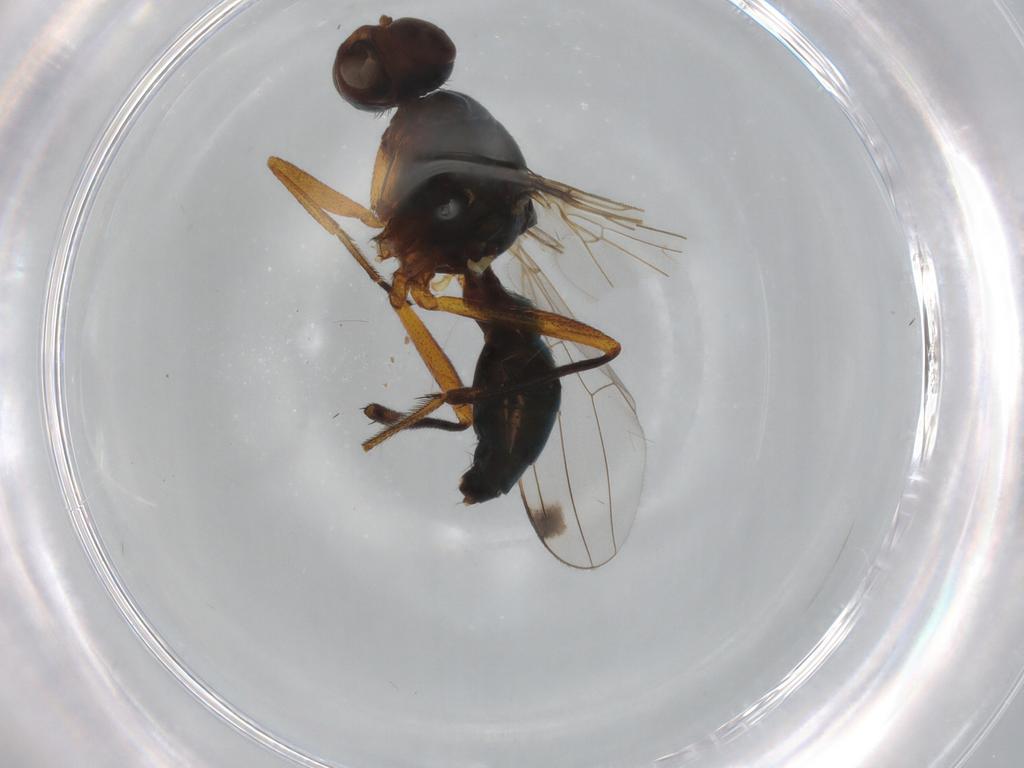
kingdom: Animalia
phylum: Arthropoda
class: Insecta
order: Diptera
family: Sepsidae
